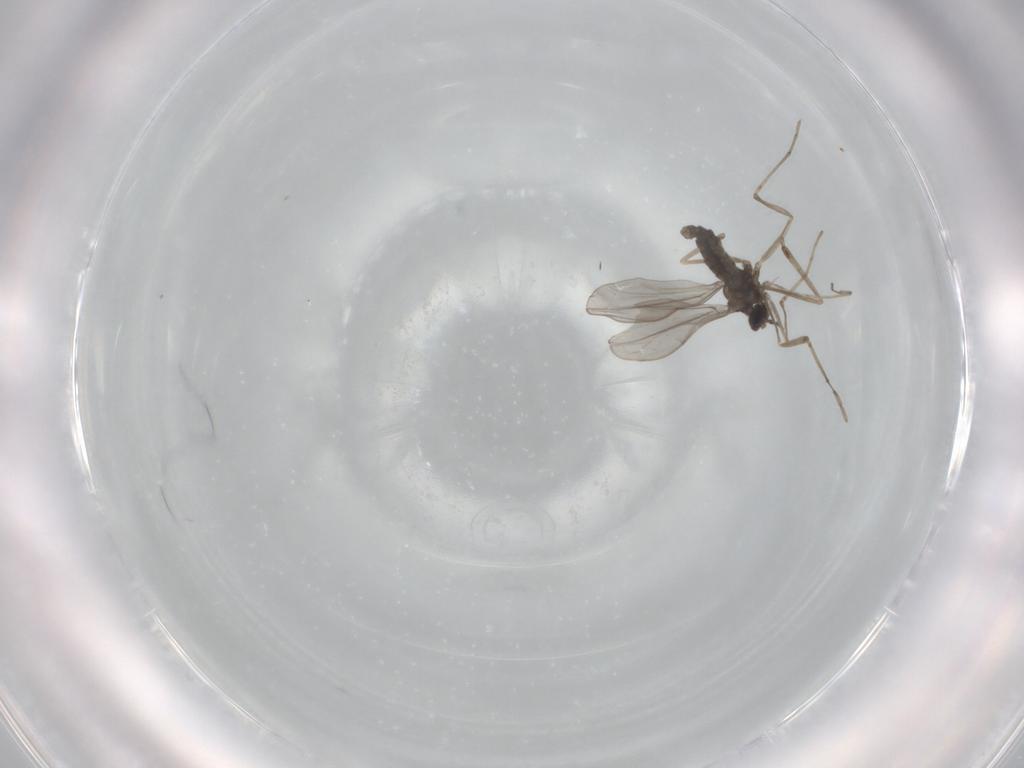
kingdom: Animalia
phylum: Arthropoda
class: Insecta
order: Diptera
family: Cecidomyiidae
